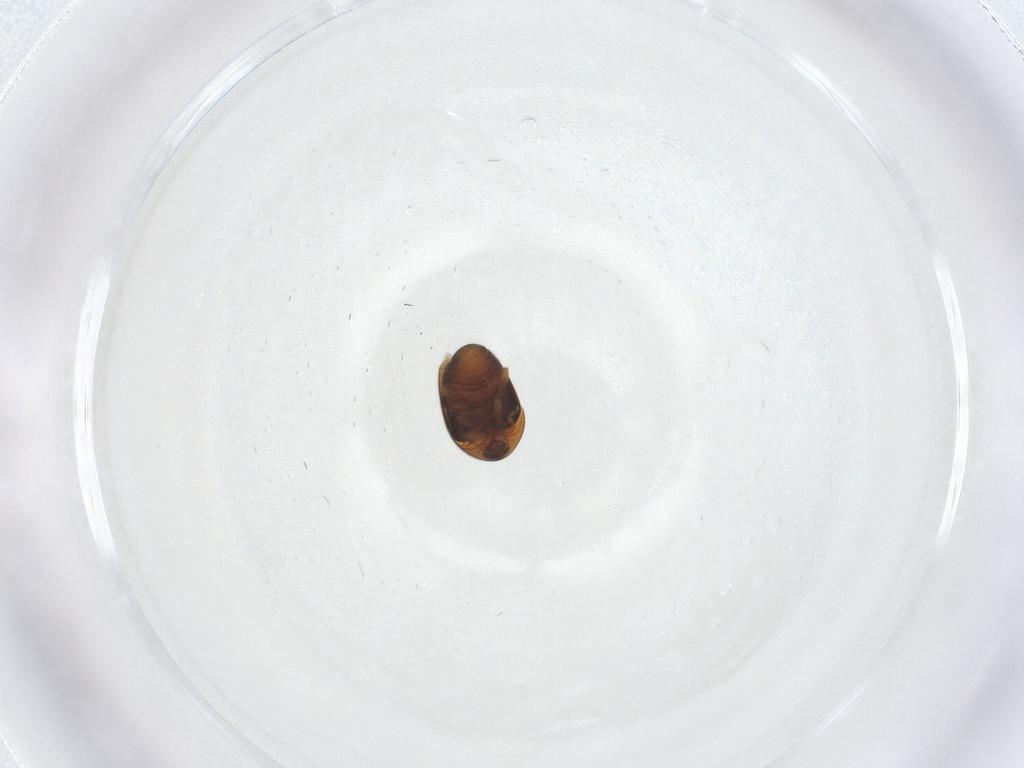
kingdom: Animalia
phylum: Arthropoda
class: Insecta
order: Coleoptera
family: Corylophidae
